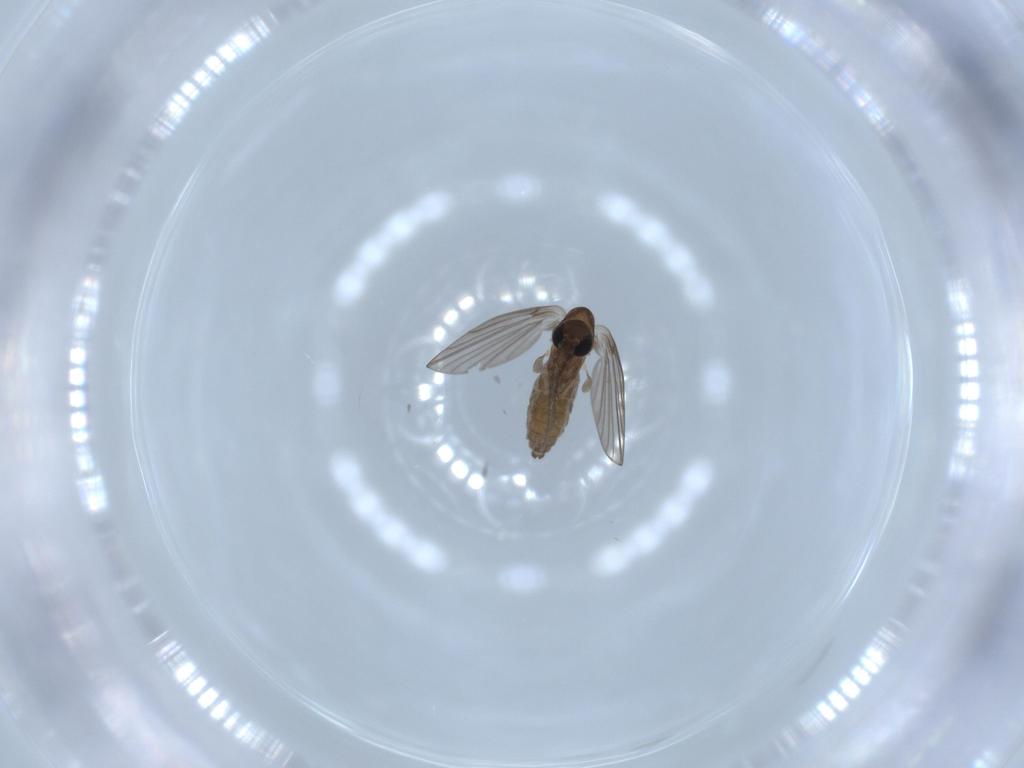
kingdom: Animalia
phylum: Arthropoda
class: Insecta
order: Diptera
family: Psychodidae
